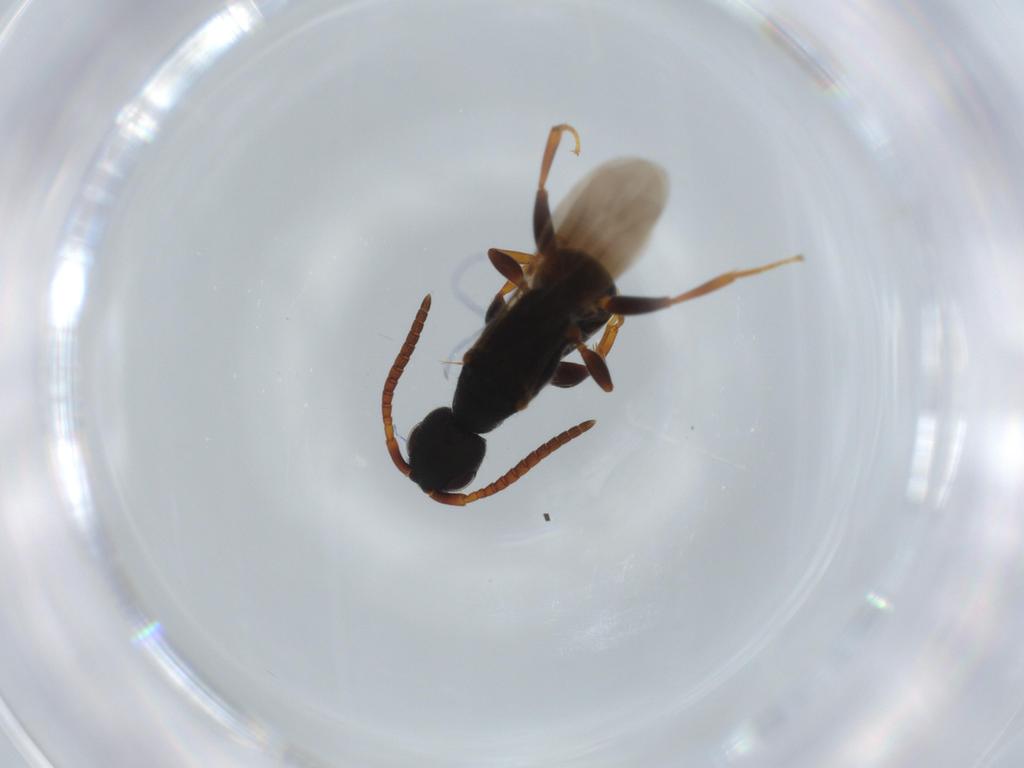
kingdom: Animalia
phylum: Arthropoda
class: Insecta
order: Hymenoptera
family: Bethylidae
